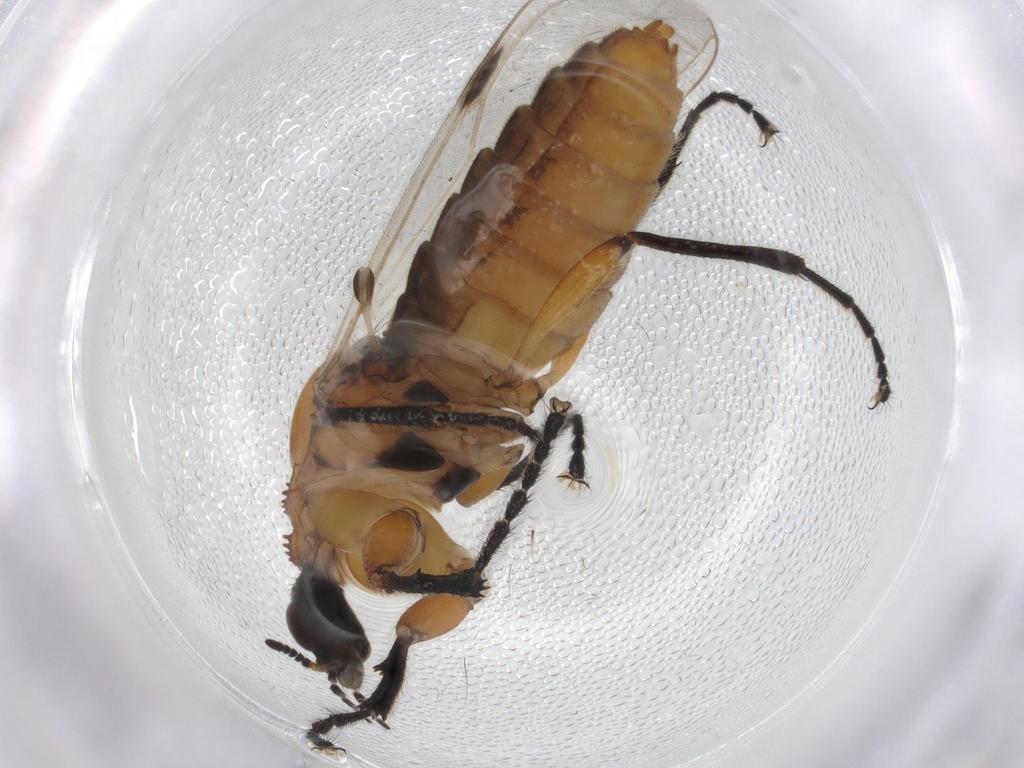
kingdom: Animalia
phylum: Arthropoda
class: Insecta
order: Diptera
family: Bibionidae
